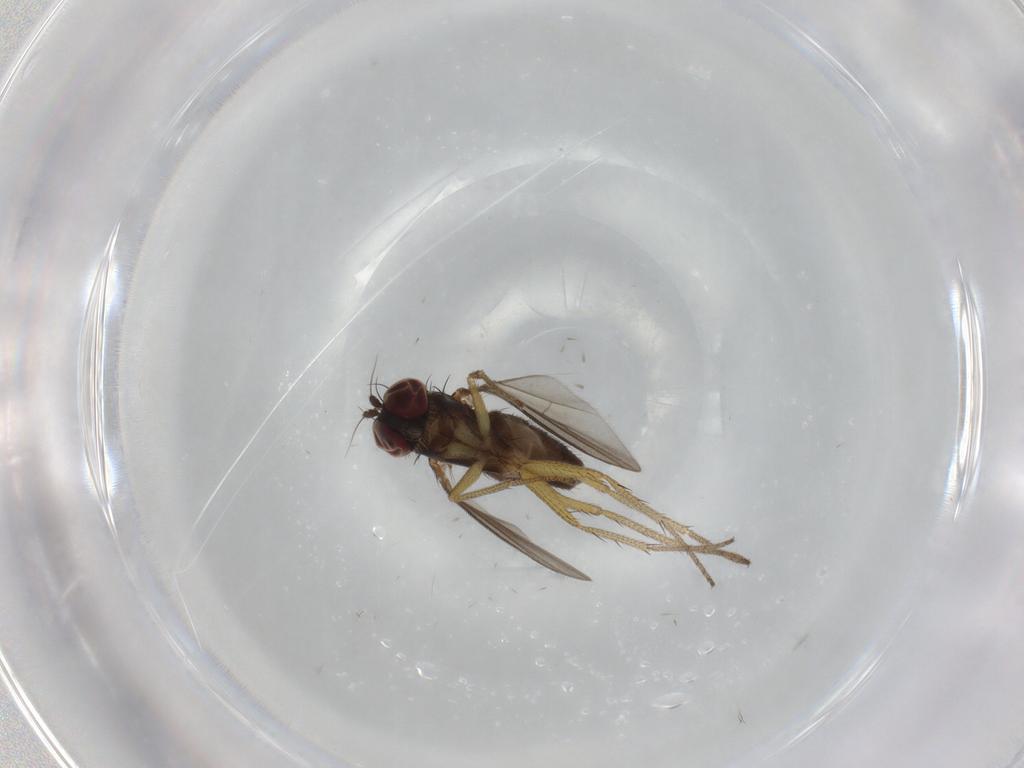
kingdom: Animalia
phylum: Arthropoda
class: Insecta
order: Diptera
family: Dolichopodidae
